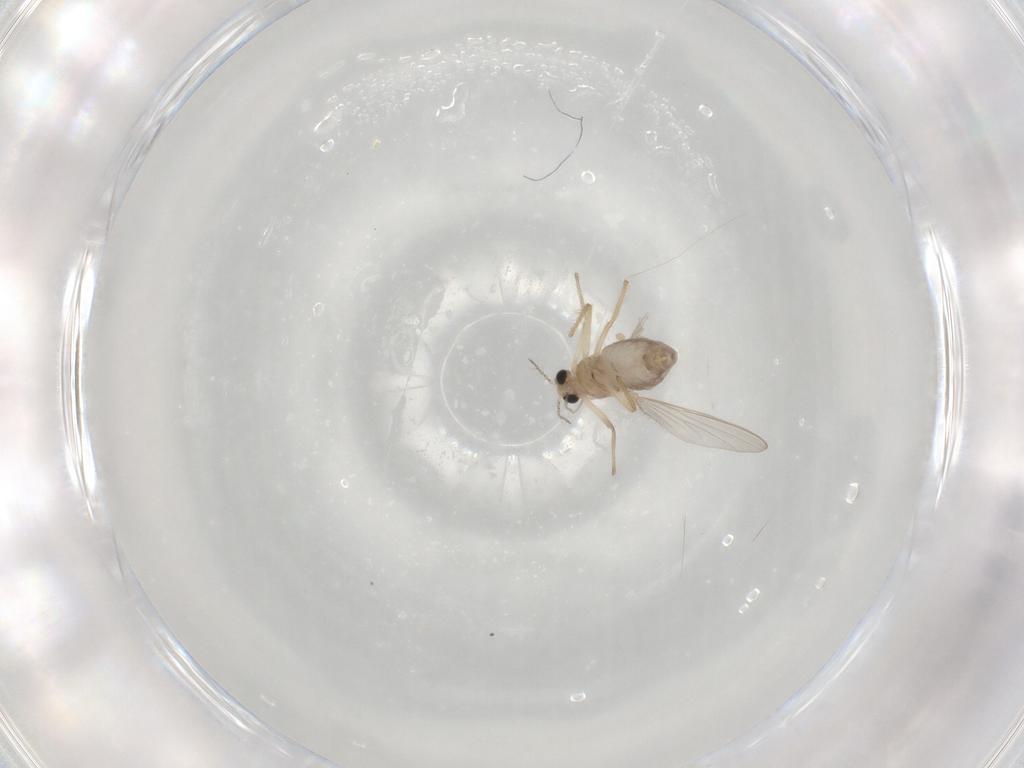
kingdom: Animalia
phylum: Arthropoda
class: Insecta
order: Diptera
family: Chironomidae
